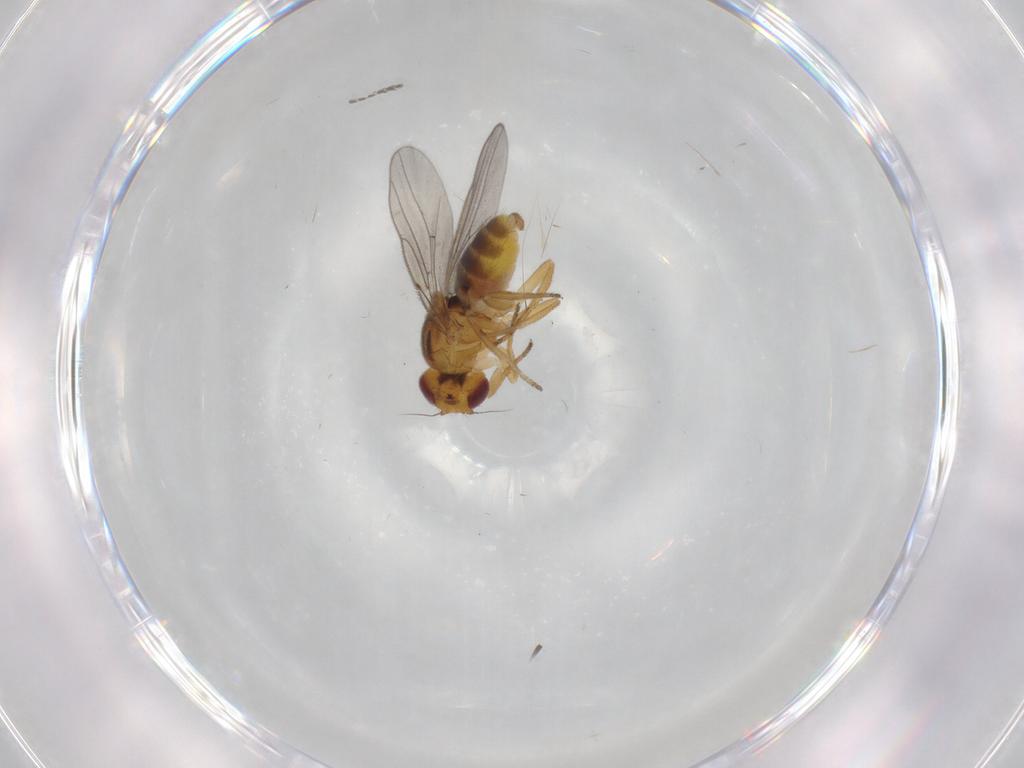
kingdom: Animalia
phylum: Arthropoda
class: Insecta
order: Diptera
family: Chloropidae
